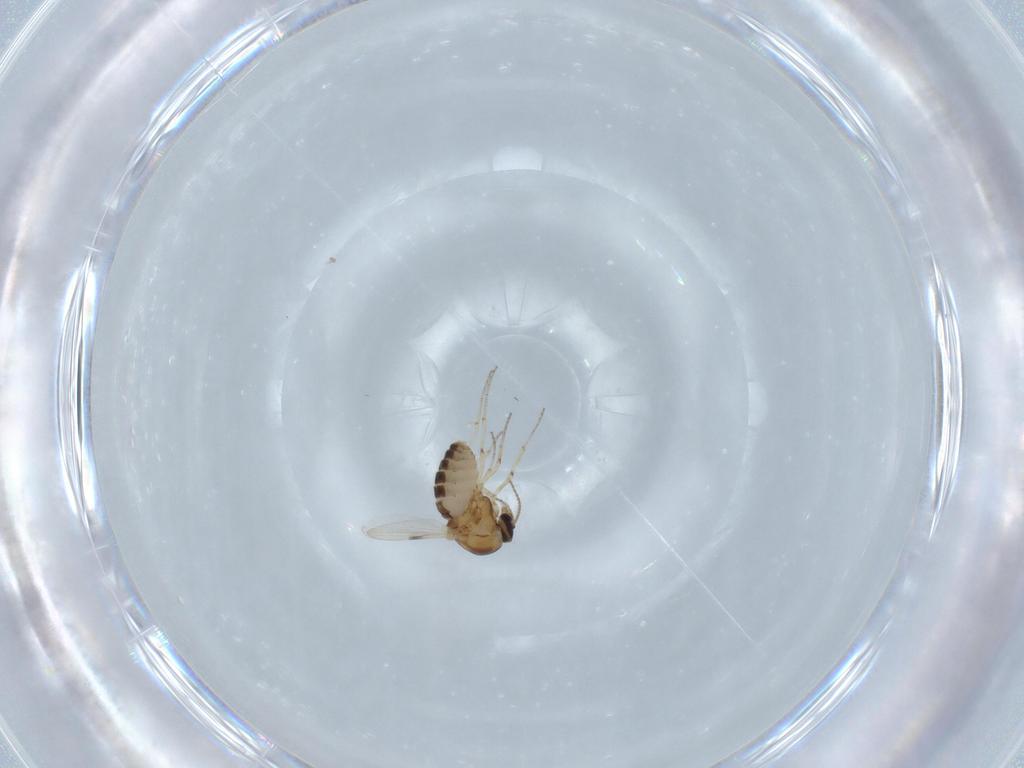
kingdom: Animalia
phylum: Arthropoda
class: Insecta
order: Diptera
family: Ceratopogonidae
